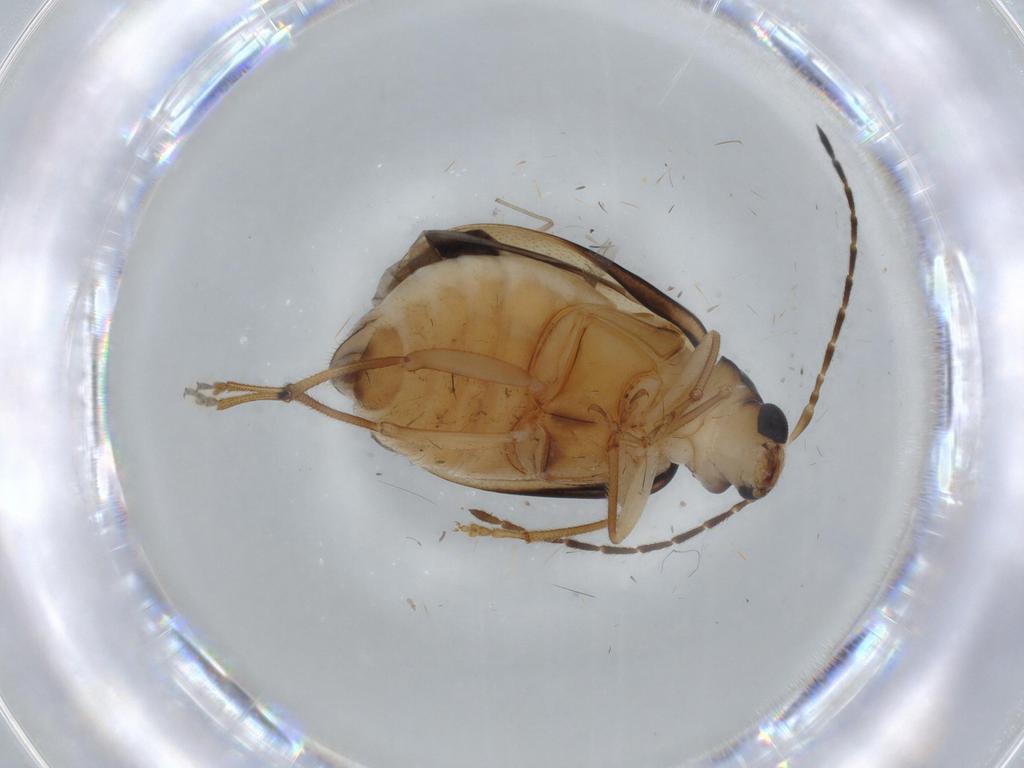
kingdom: Animalia
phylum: Arthropoda
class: Insecta
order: Coleoptera
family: Chrysomelidae
